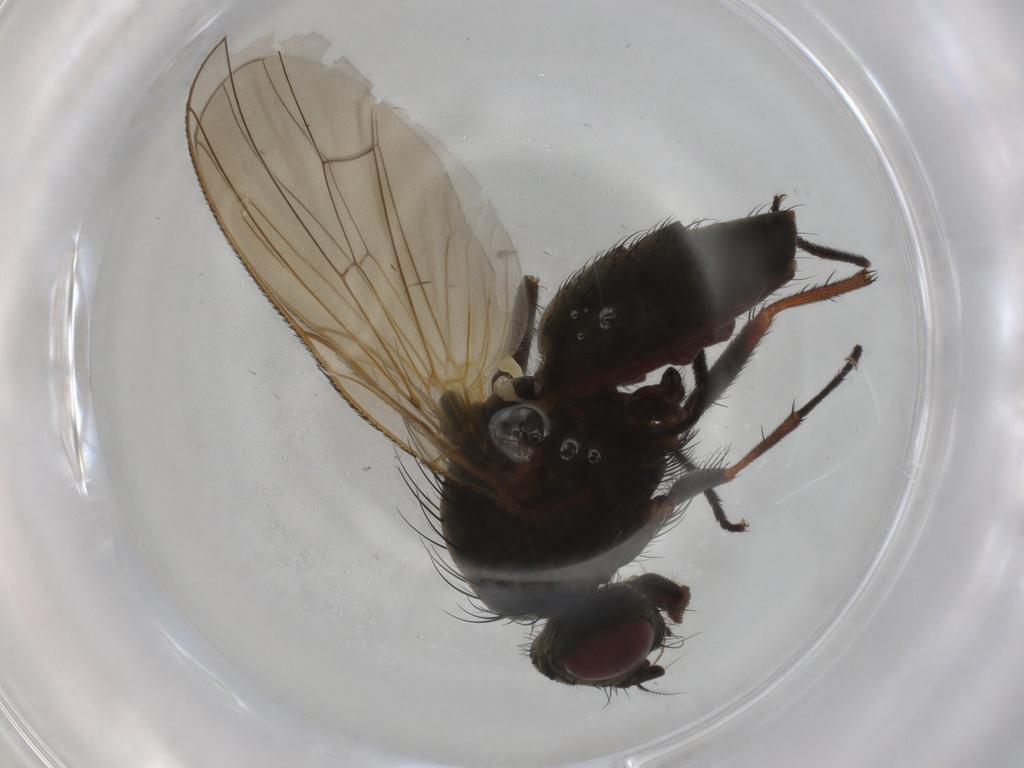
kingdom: Animalia
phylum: Arthropoda
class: Insecta
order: Diptera
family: Anthomyiidae
